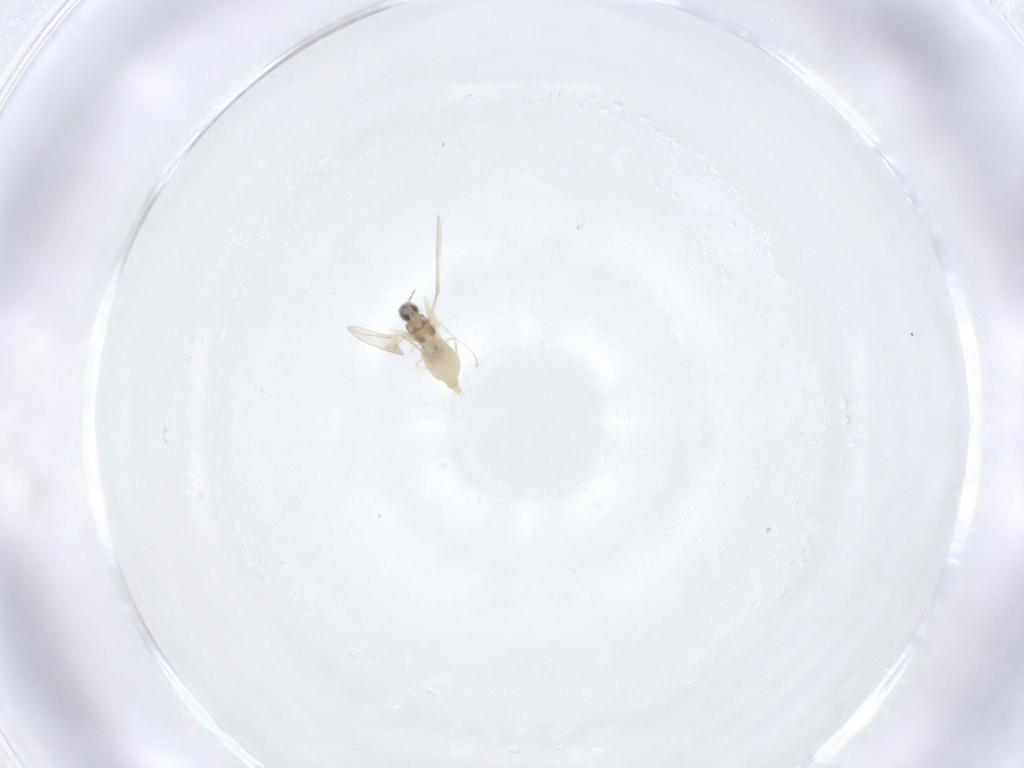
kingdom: Animalia
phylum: Arthropoda
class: Insecta
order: Diptera
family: Cecidomyiidae
